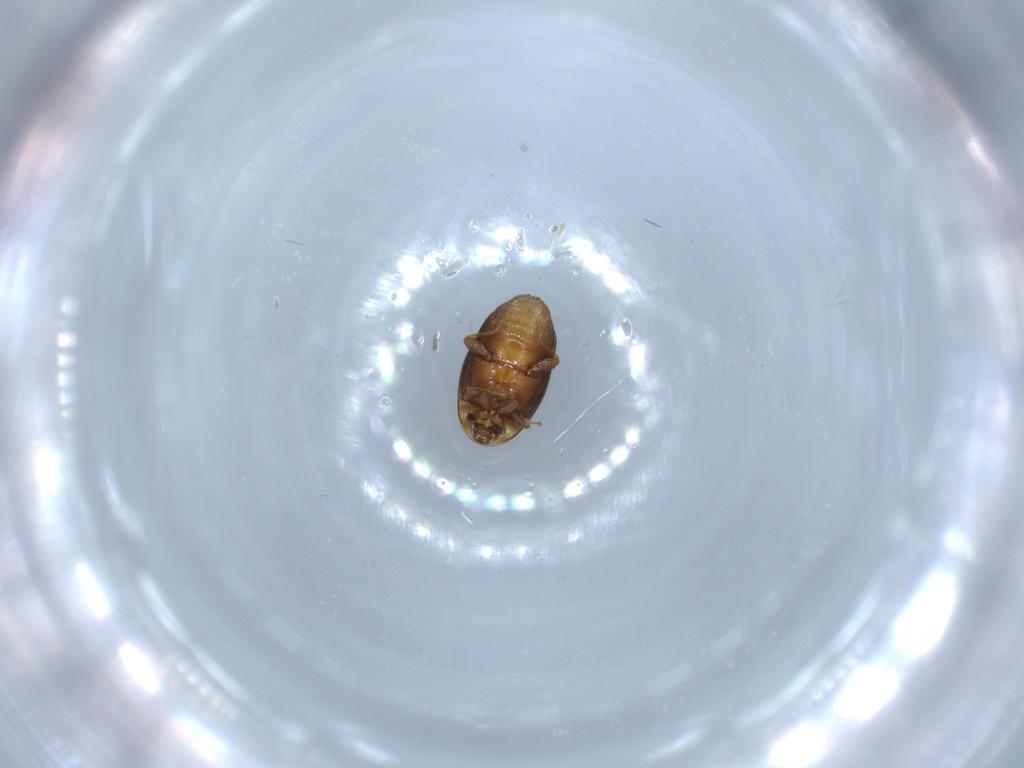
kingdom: Animalia
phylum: Arthropoda
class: Insecta
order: Coleoptera
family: Corylophidae
